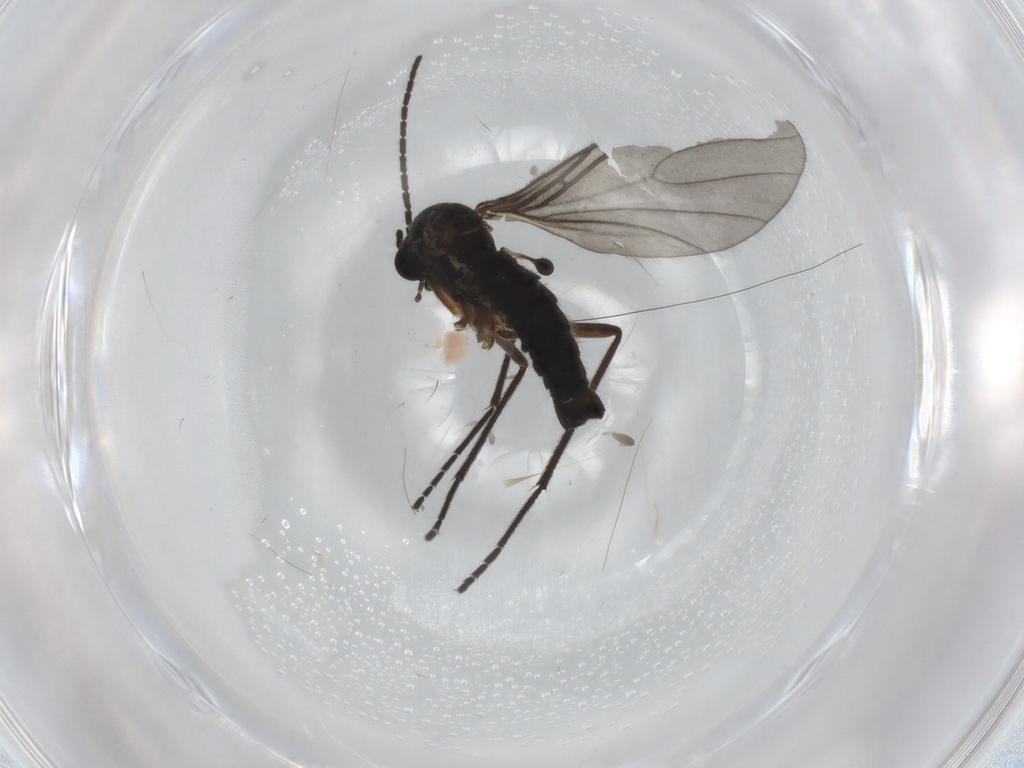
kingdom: Animalia
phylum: Arthropoda
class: Insecta
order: Diptera
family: Sciaridae
